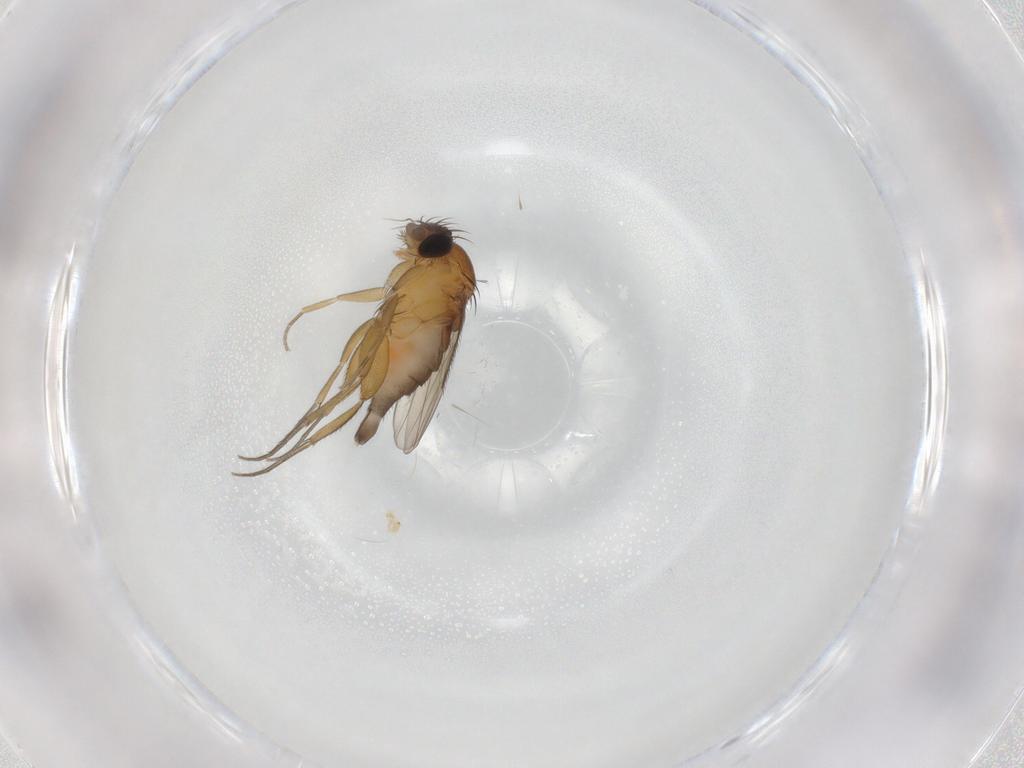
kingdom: Animalia
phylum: Arthropoda
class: Insecta
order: Diptera
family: Phoridae
